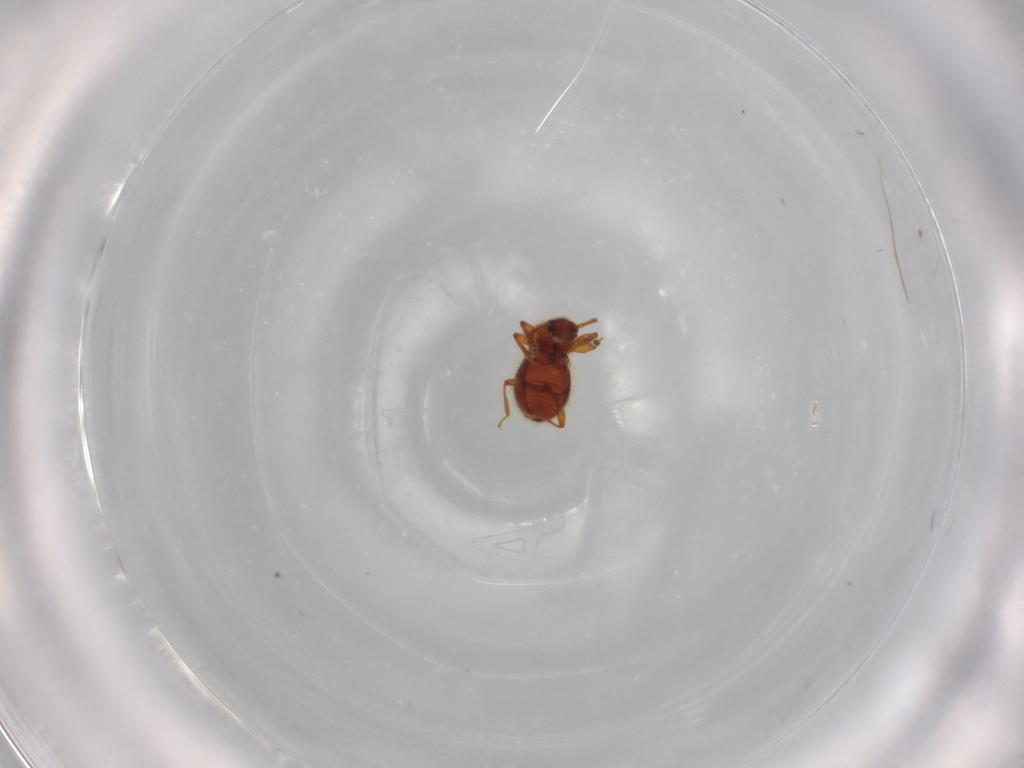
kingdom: Animalia
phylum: Arthropoda
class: Insecta
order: Coleoptera
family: Staphylinidae
